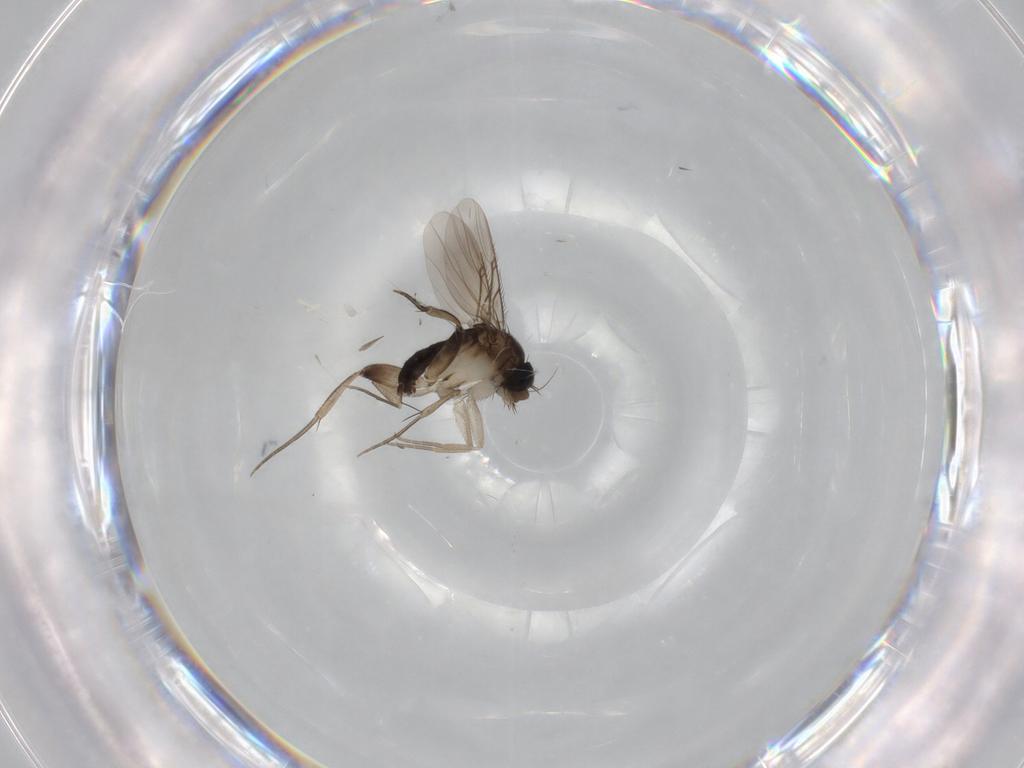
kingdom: Animalia
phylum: Arthropoda
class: Insecta
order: Diptera
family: Phoridae
